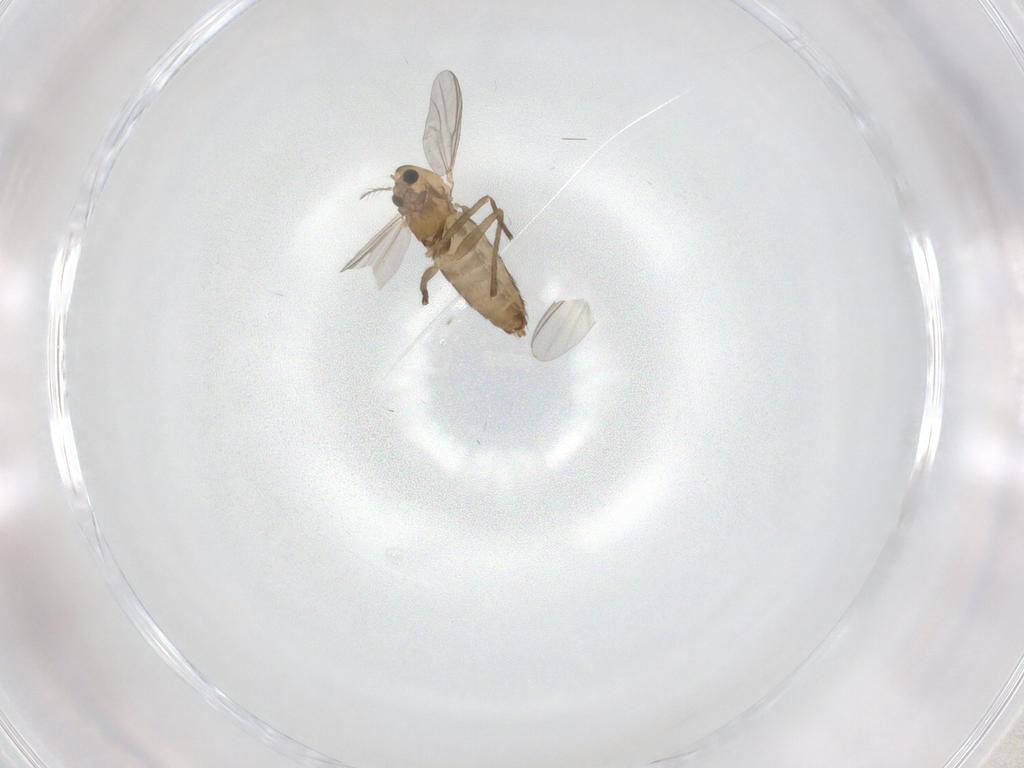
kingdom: Animalia
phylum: Arthropoda
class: Insecta
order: Diptera
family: Chironomidae
